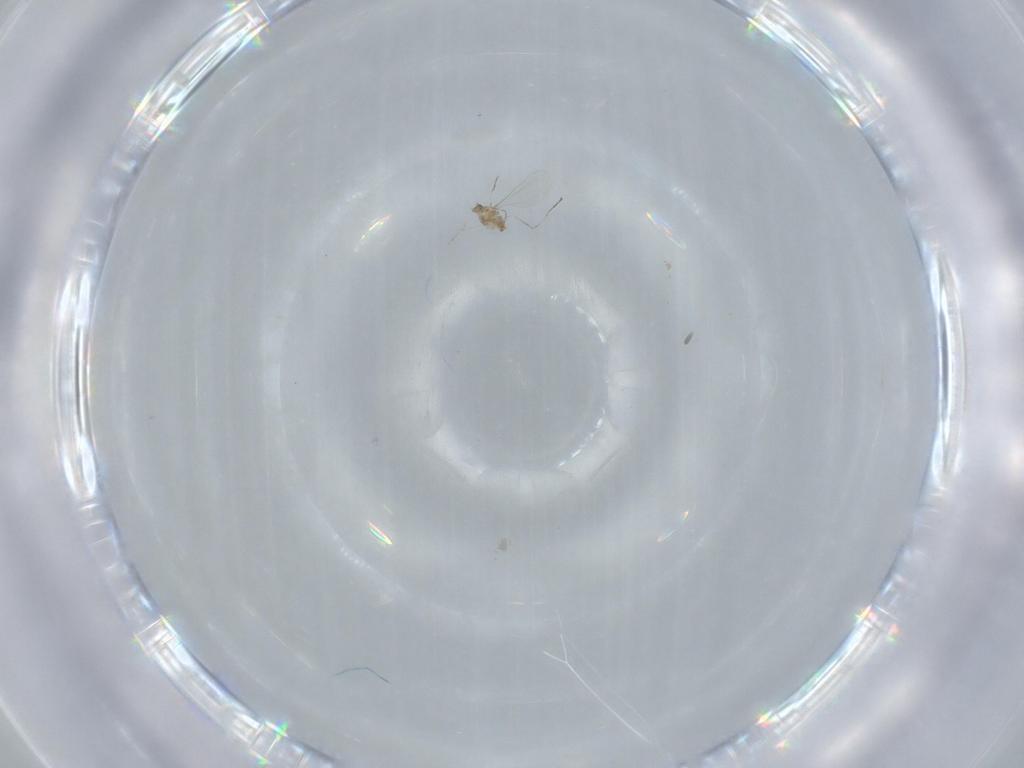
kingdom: Animalia
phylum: Arthropoda
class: Insecta
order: Diptera
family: Cecidomyiidae
